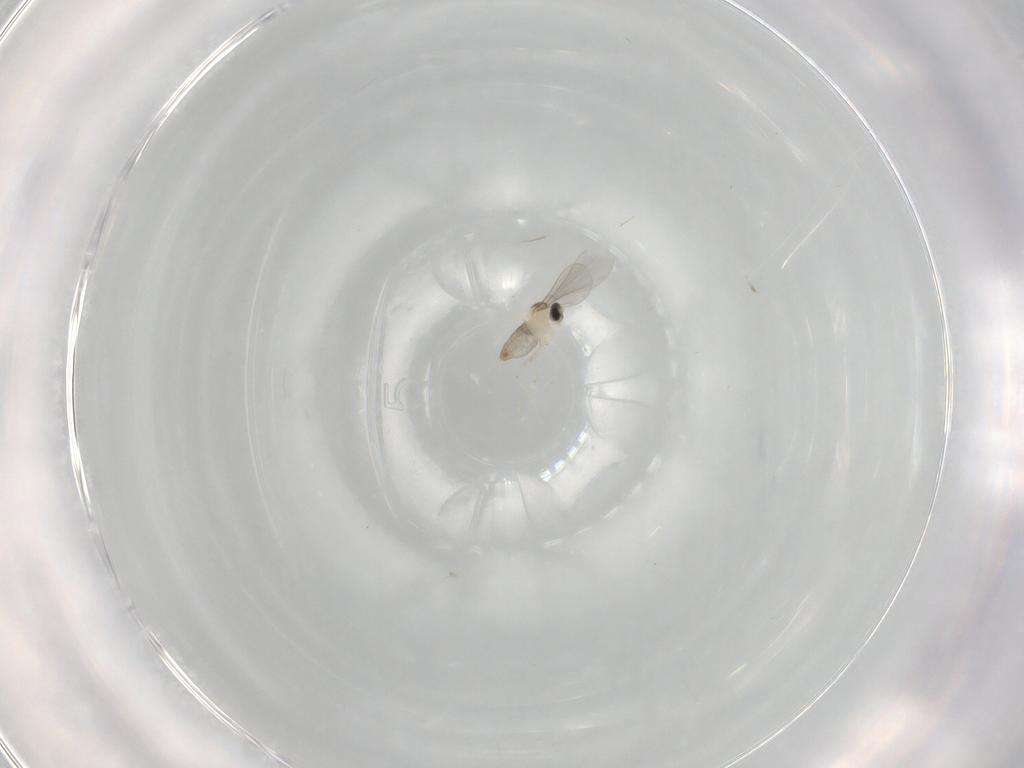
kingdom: Animalia
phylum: Arthropoda
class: Insecta
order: Diptera
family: Cecidomyiidae
